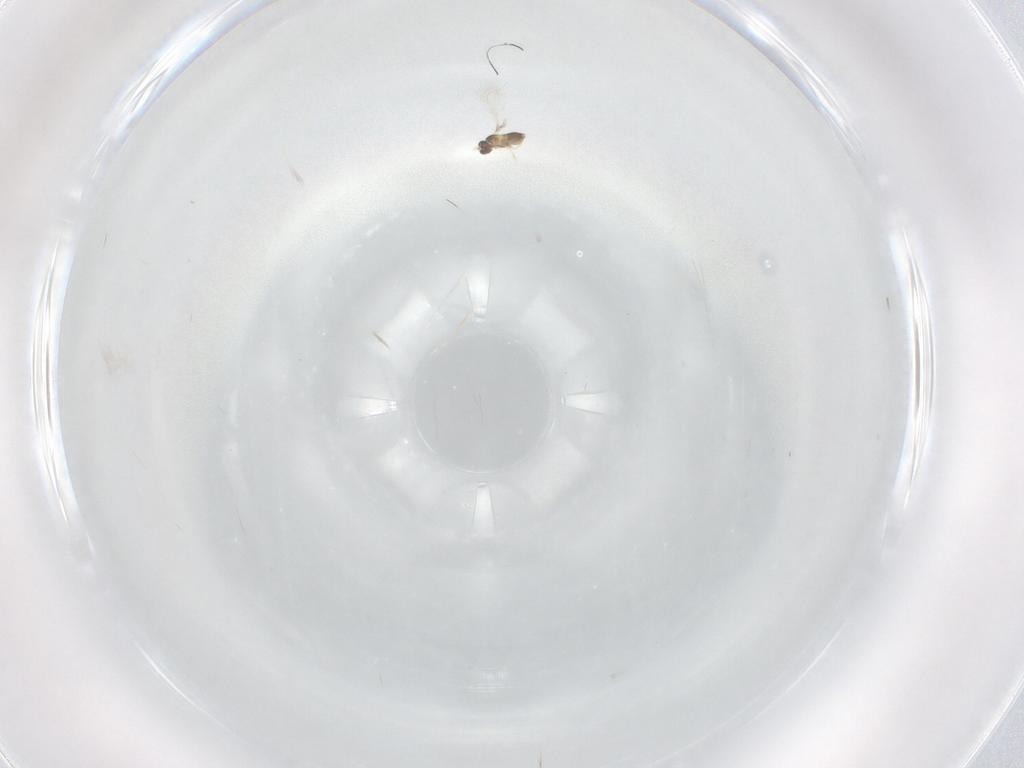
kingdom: Animalia
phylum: Arthropoda
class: Insecta
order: Hymenoptera
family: Mymaridae
